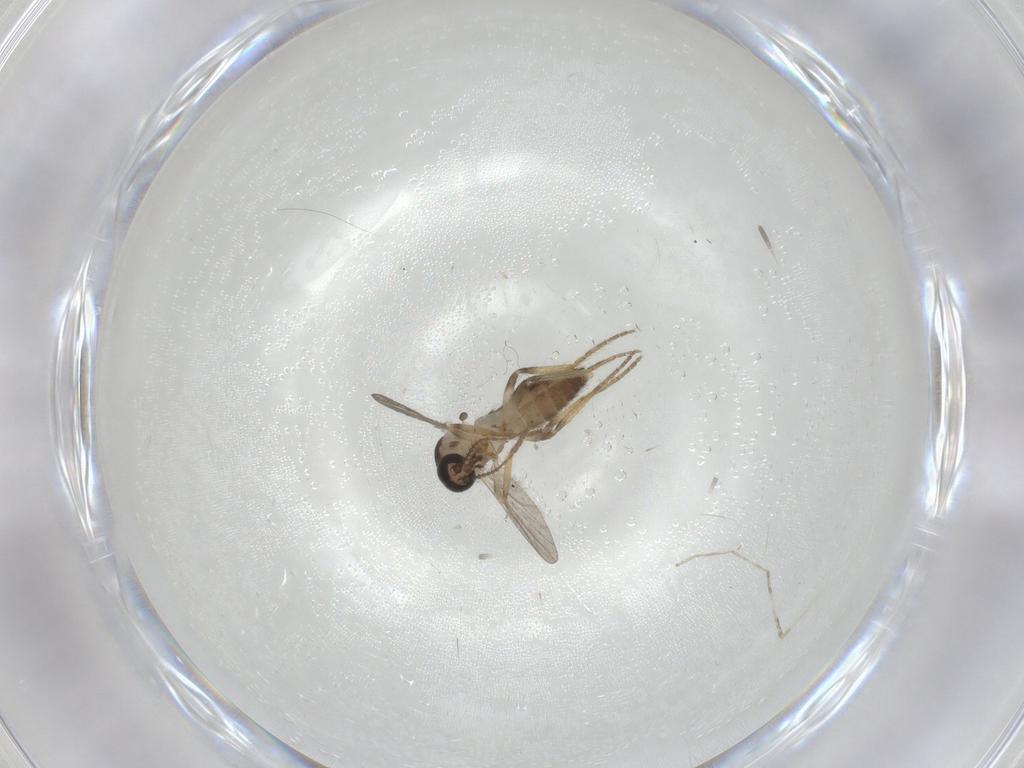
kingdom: Animalia
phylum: Arthropoda
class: Insecta
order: Diptera
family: Ceratopogonidae
